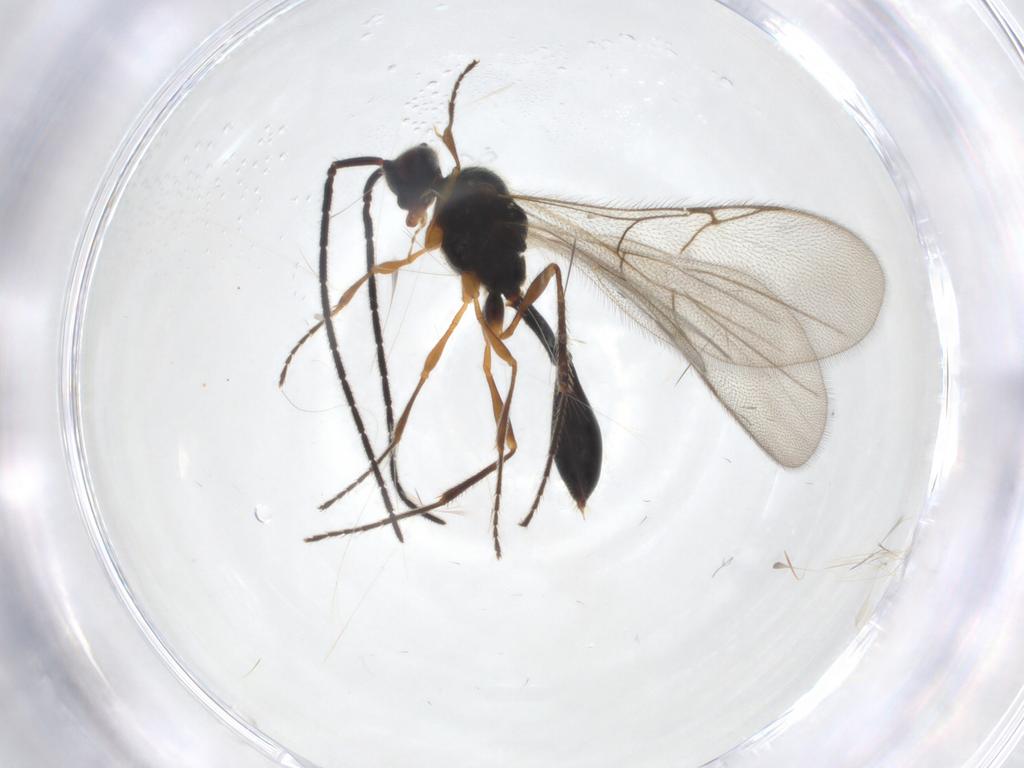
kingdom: Animalia
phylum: Arthropoda
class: Insecta
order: Hymenoptera
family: Diapriidae
